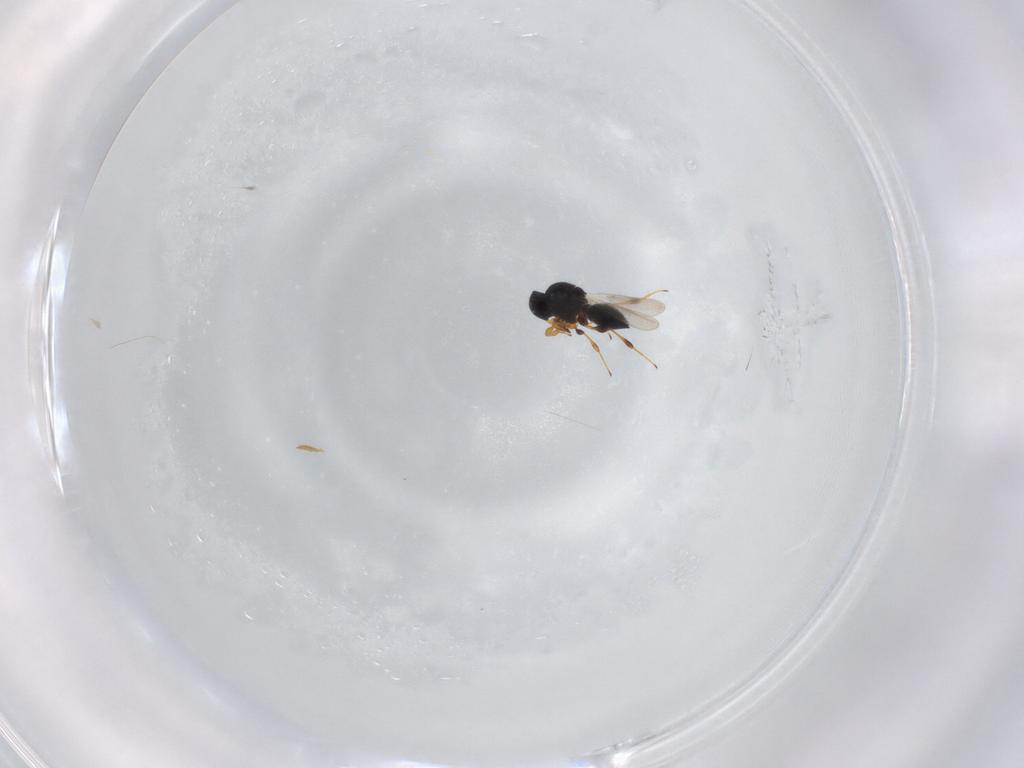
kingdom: Animalia
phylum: Arthropoda
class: Insecta
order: Hymenoptera
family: Platygastridae
